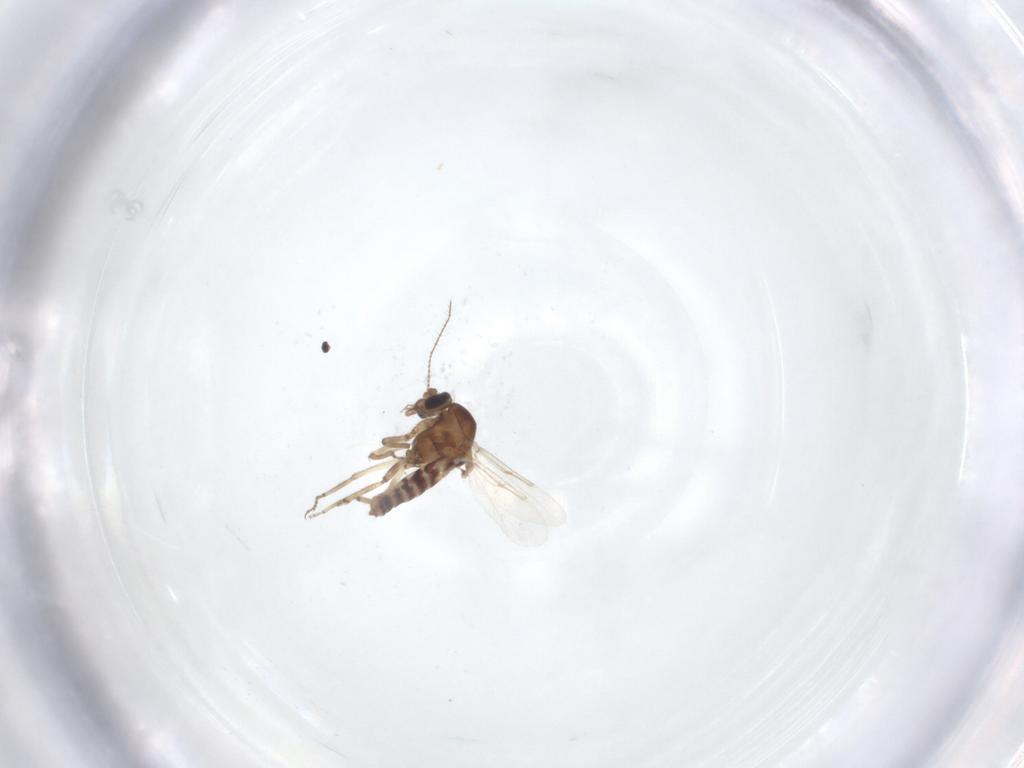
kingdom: Animalia
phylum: Arthropoda
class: Insecta
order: Diptera
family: Ceratopogonidae
